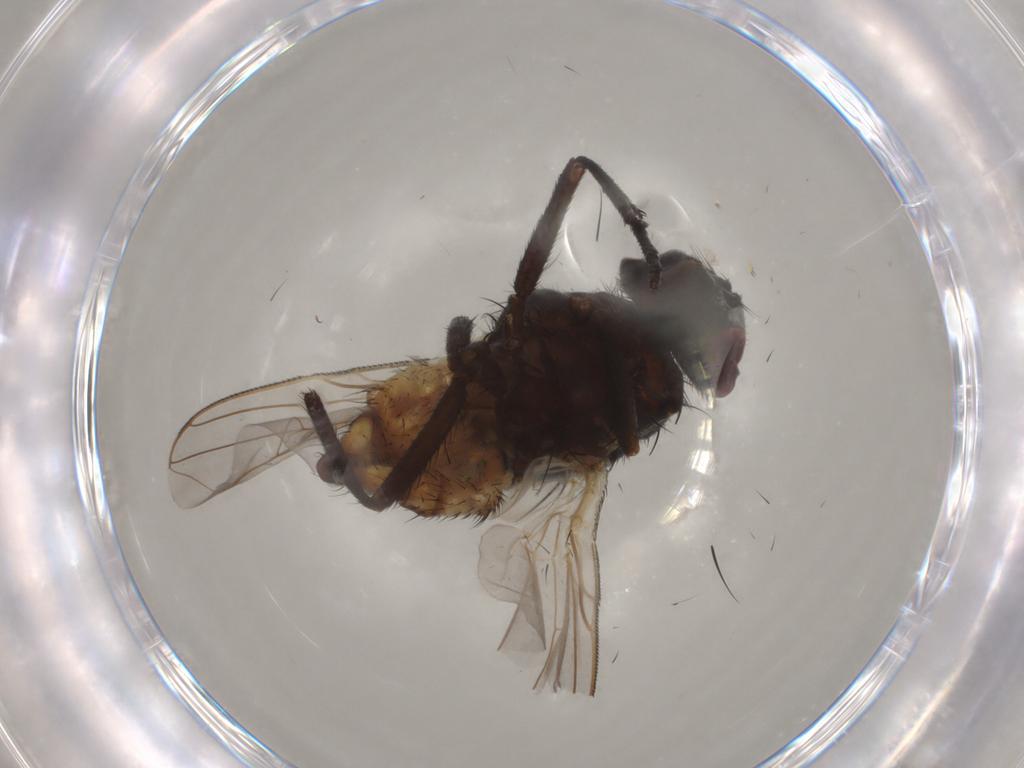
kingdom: Animalia
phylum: Arthropoda
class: Insecta
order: Diptera
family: Muscidae
